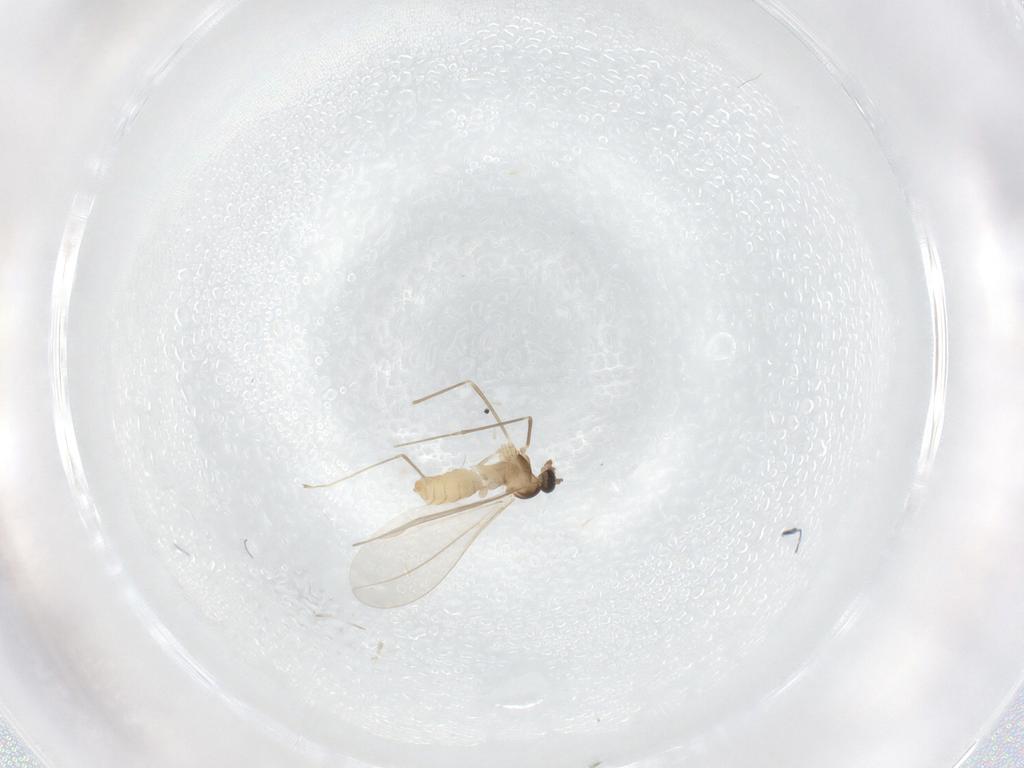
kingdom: Animalia
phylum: Arthropoda
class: Insecta
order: Diptera
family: Cecidomyiidae
